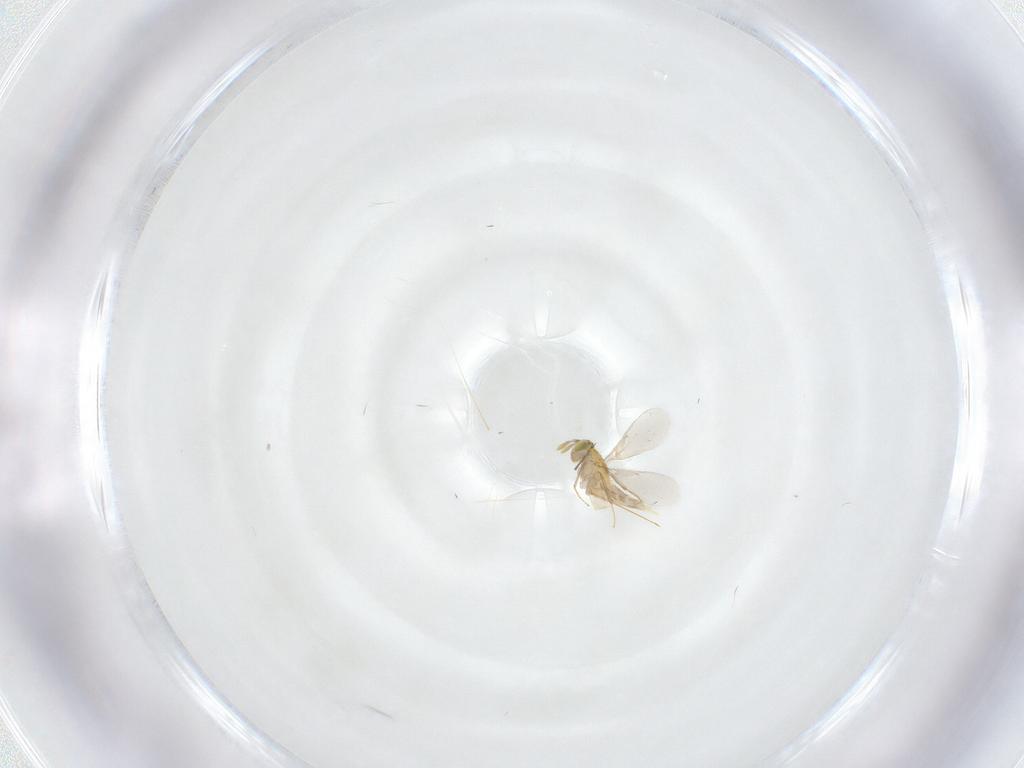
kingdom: Animalia
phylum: Arthropoda
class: Insecta
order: Hymenoptera
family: Aphelinidae
